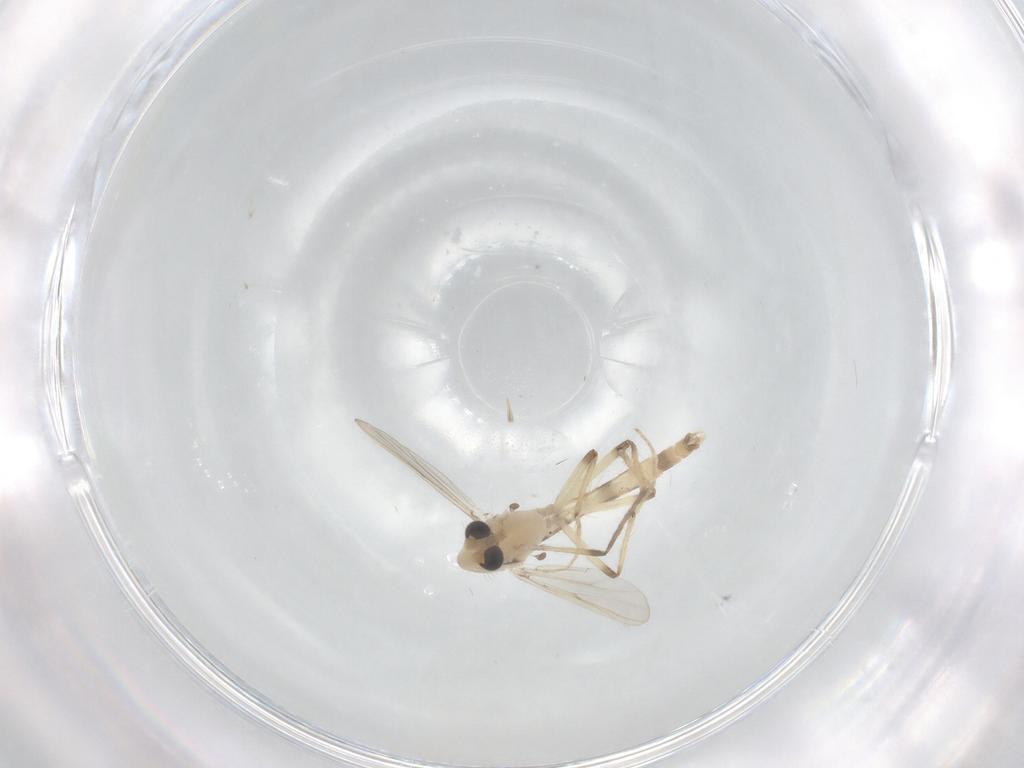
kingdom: Animalia
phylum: Arthropoda
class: Insecta
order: Diptera
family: Chironomidae
